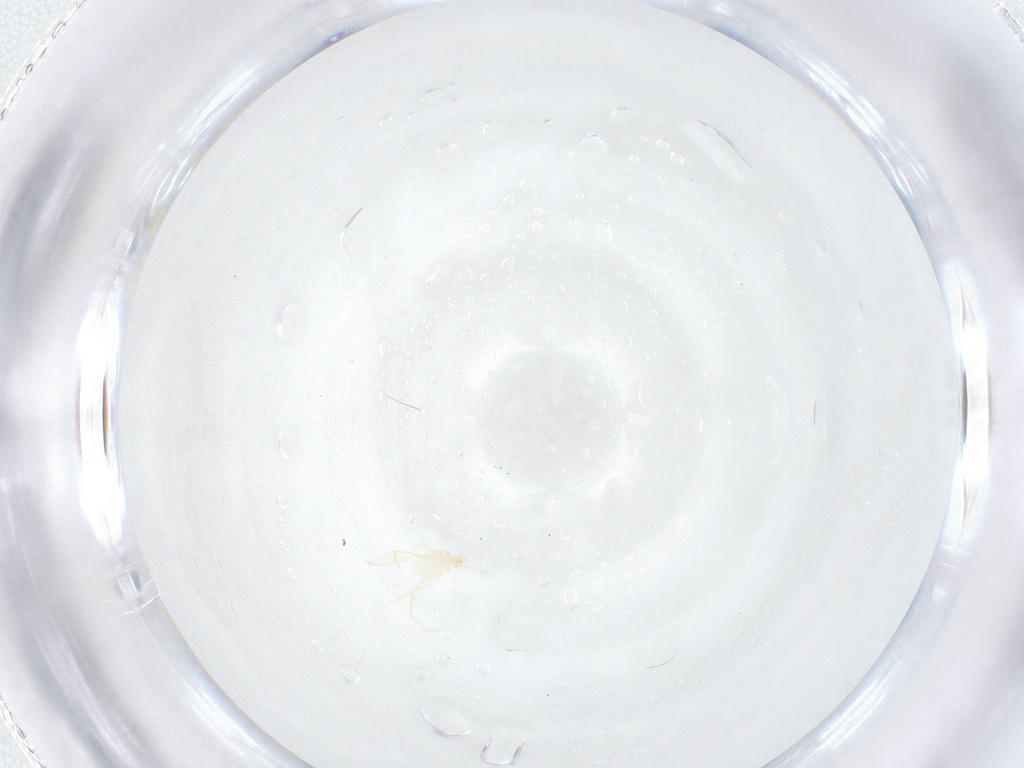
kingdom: Animalia
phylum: Arthropoda
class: Arachnida
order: Trombidiformes
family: Erythraeidae
